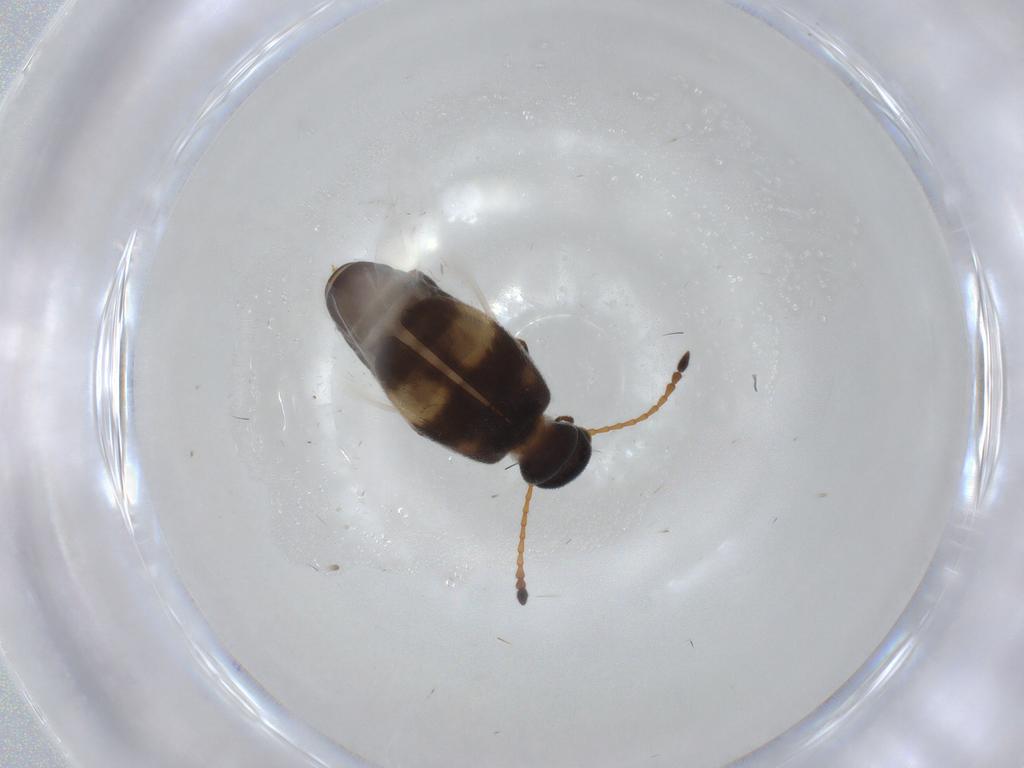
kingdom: Animalia
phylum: Arthropoda
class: Insecta
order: Coleoptera
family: Anthicidae
